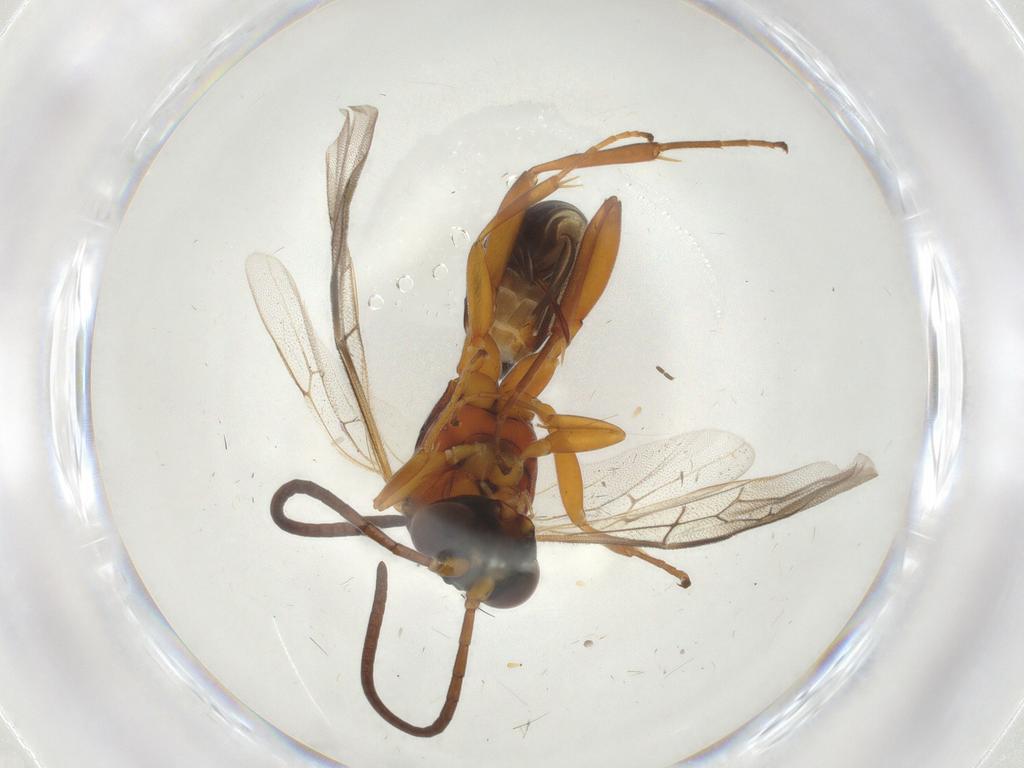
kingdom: Animalia
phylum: Arthropoda
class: Insecta
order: Hymenoptera
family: Ichneumonidae
